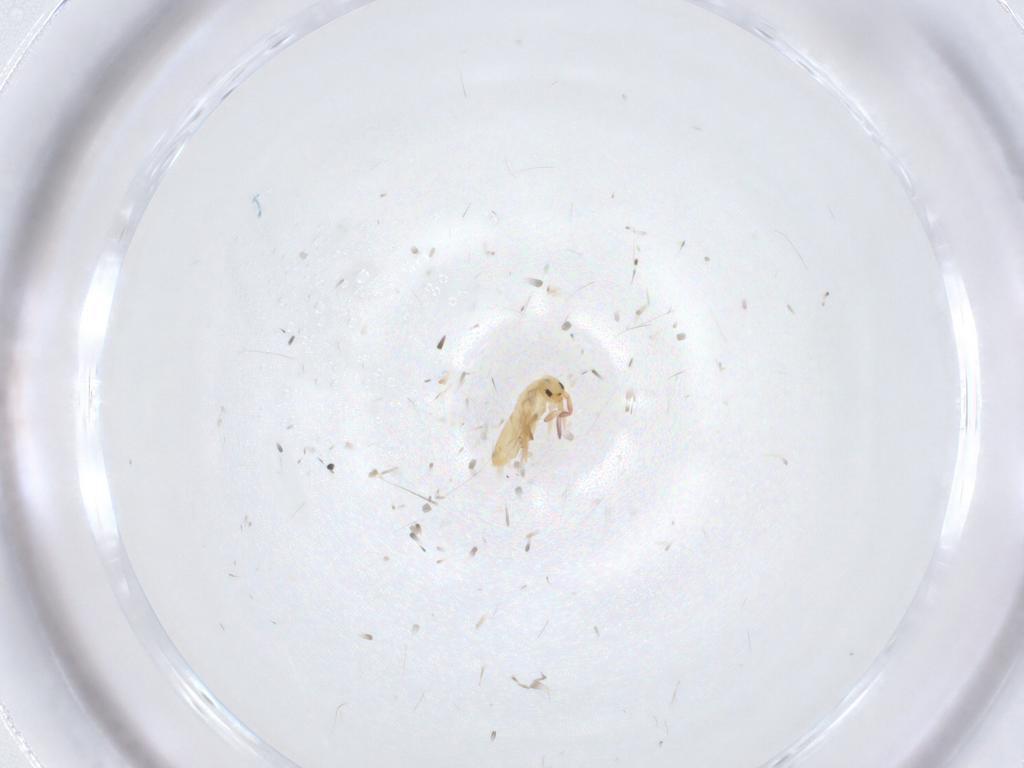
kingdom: Animalia
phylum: Arthropoda
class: Collembola
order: Entomobryomorpha
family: Entomobryidae
